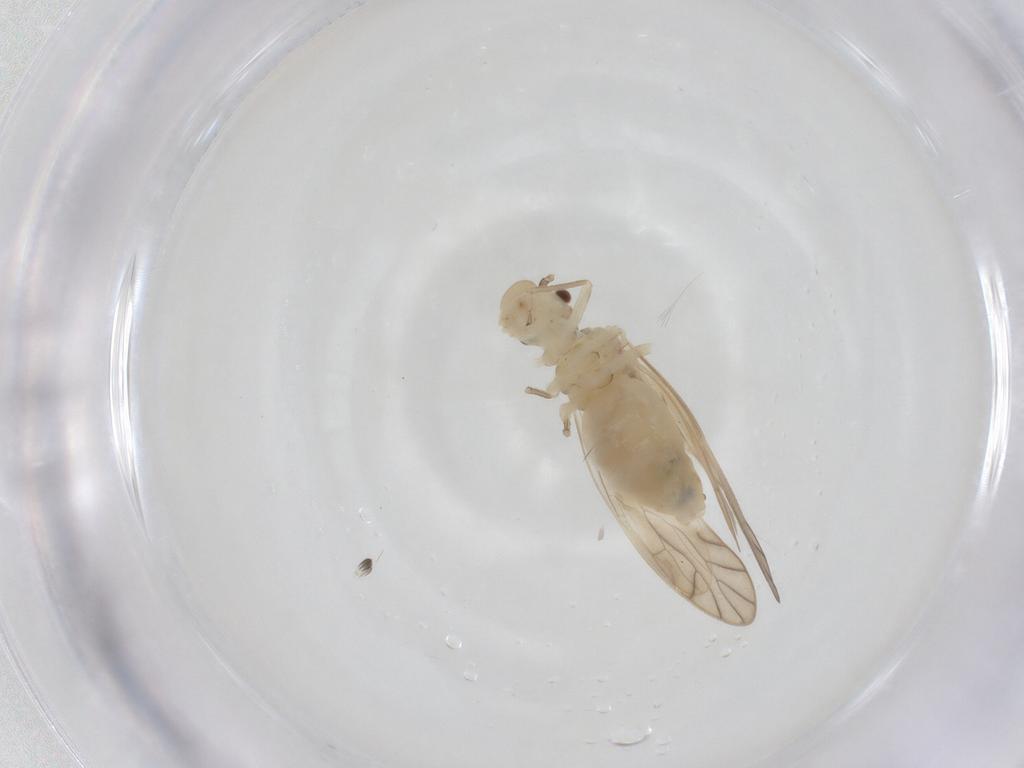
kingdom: Animalia
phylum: Arthropoda
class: Insecta
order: Psocodea
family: Caeciliusidae
